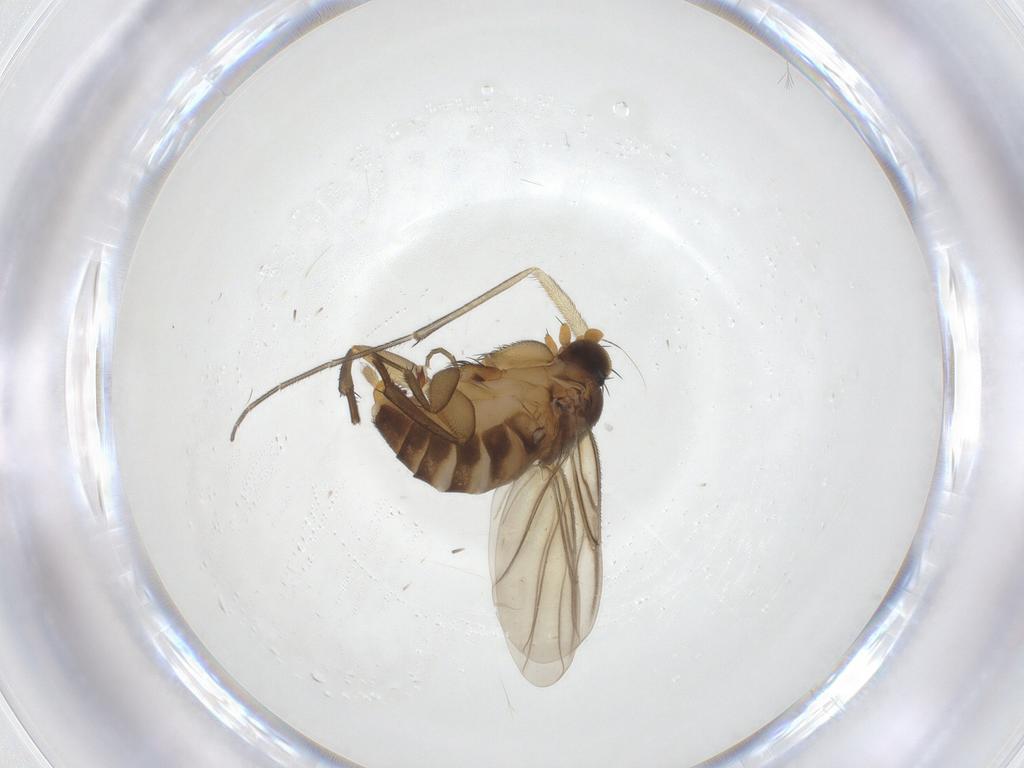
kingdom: Animalia
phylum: Arthropoda
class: Insecta
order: Diptera
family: Phoridae
